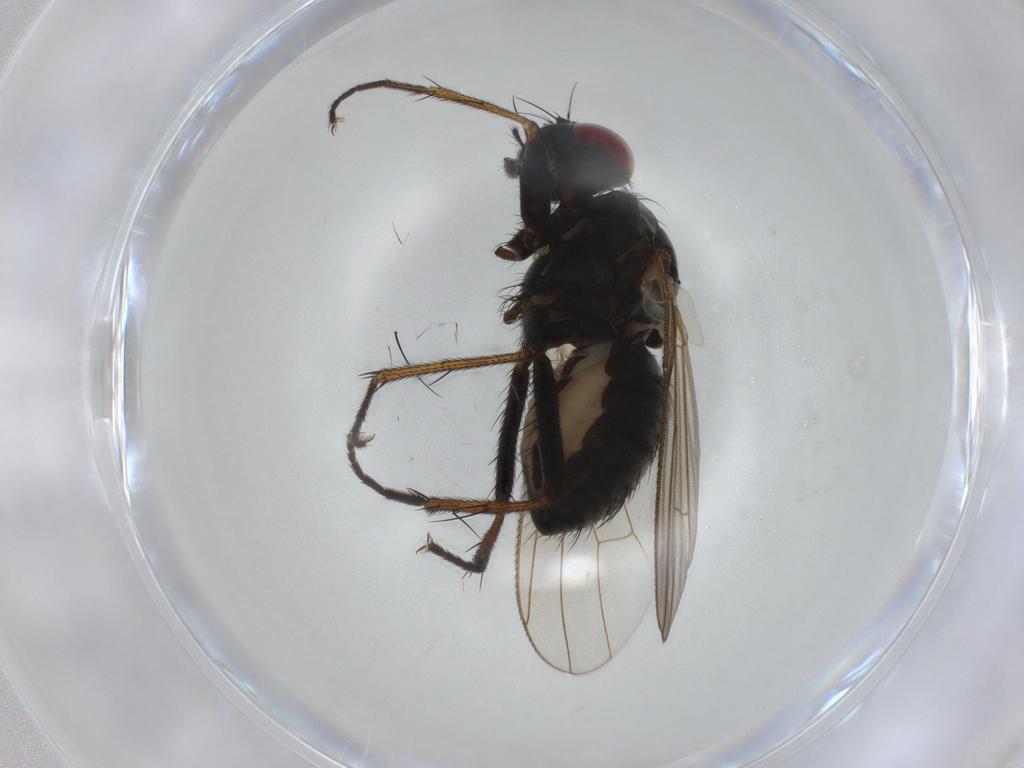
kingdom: Animalia
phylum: Arthropoda
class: Insecta
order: Diptera
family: Muscidae
